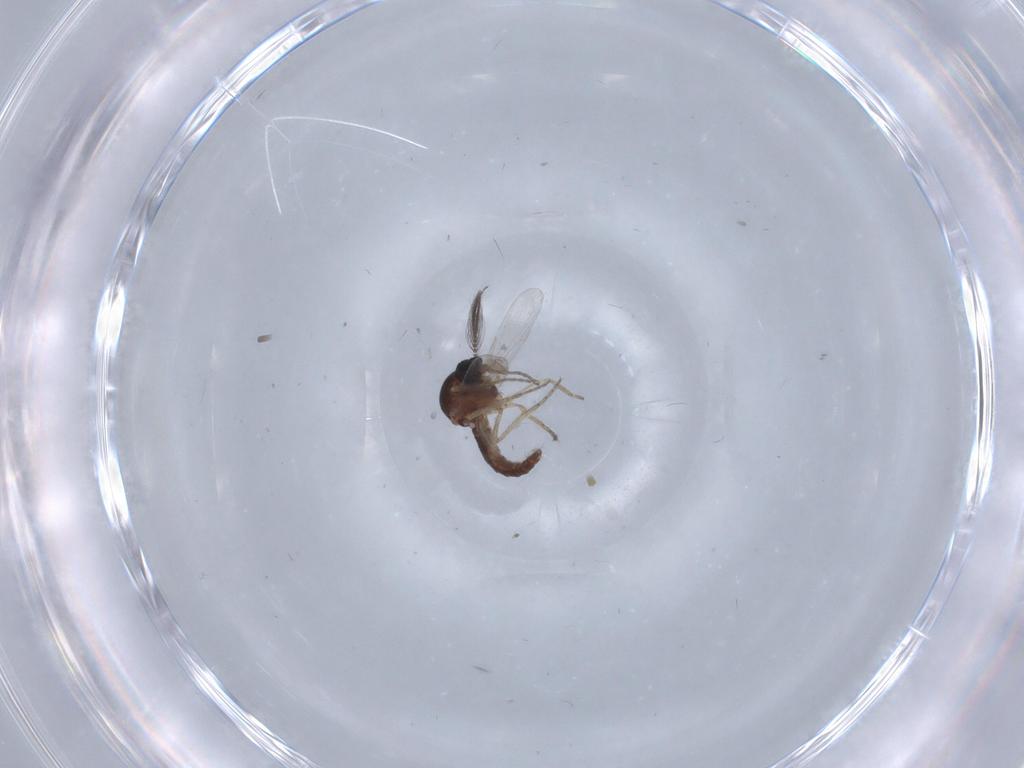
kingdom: Animalia
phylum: Arthropoda
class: Insecta
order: Diptera
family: Ceratopogonidae
